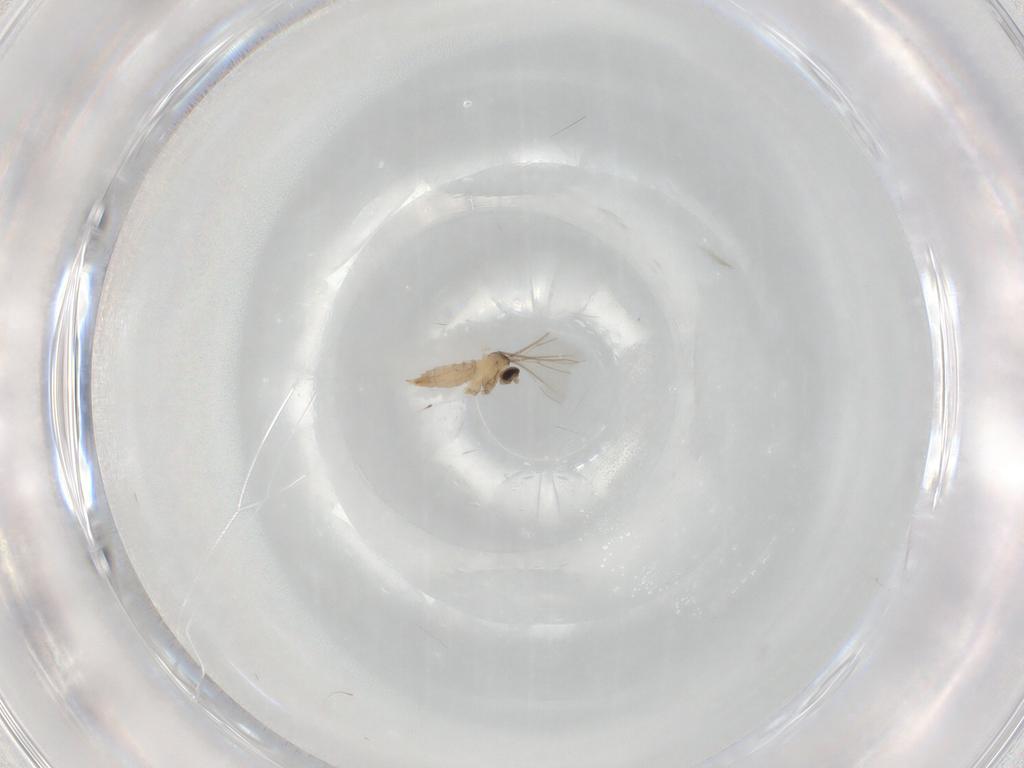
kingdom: Animalia
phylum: Arthropoda
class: Insecta
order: Diptera
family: Cecidomyiidae
